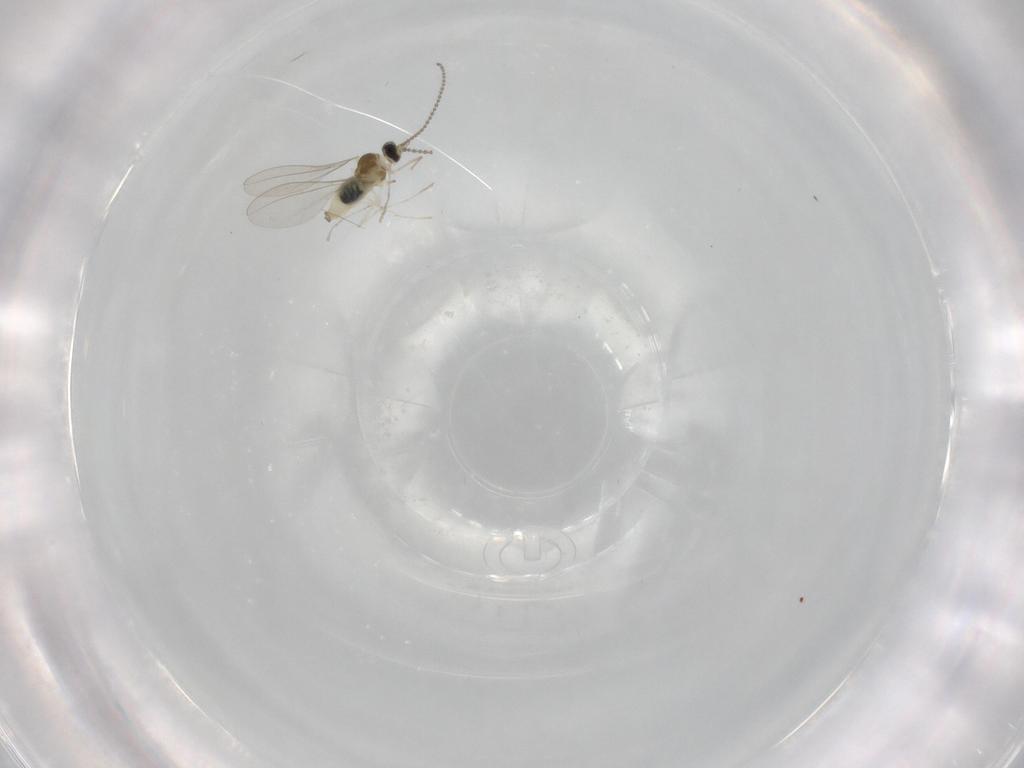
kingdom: Animalia
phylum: Arthropoda
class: Insecta
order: Diptera
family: Cecidomyiidae
